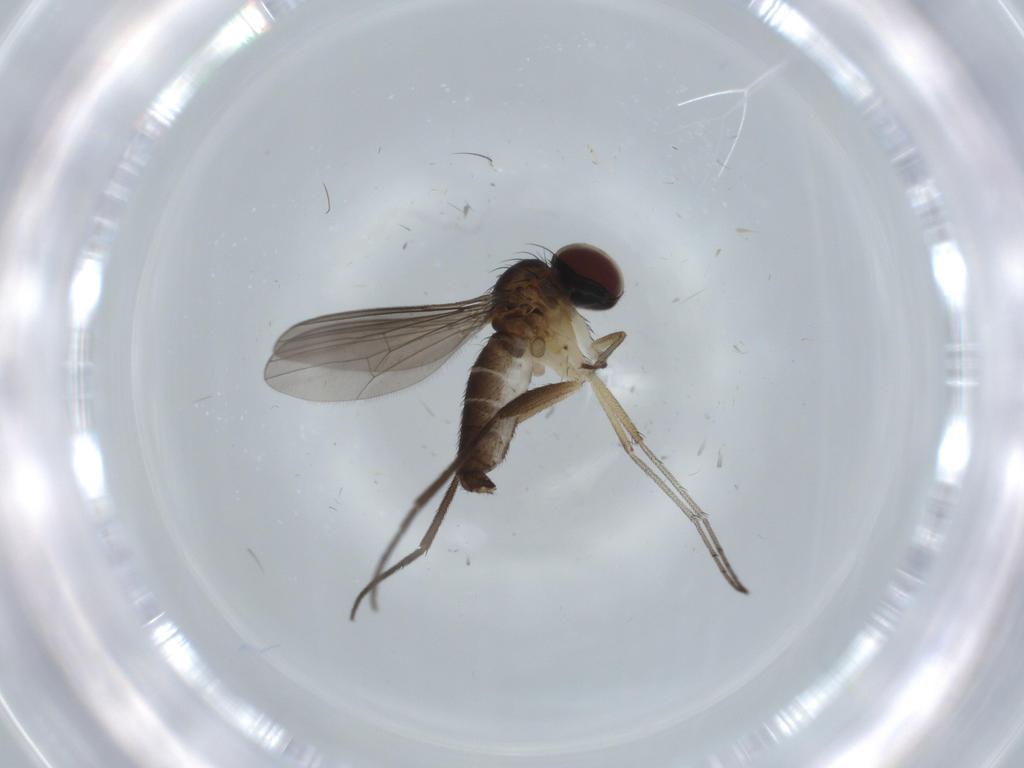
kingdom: Animalia
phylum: Arthropoda
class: Insecta
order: Diptera
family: Dolichopodidae
